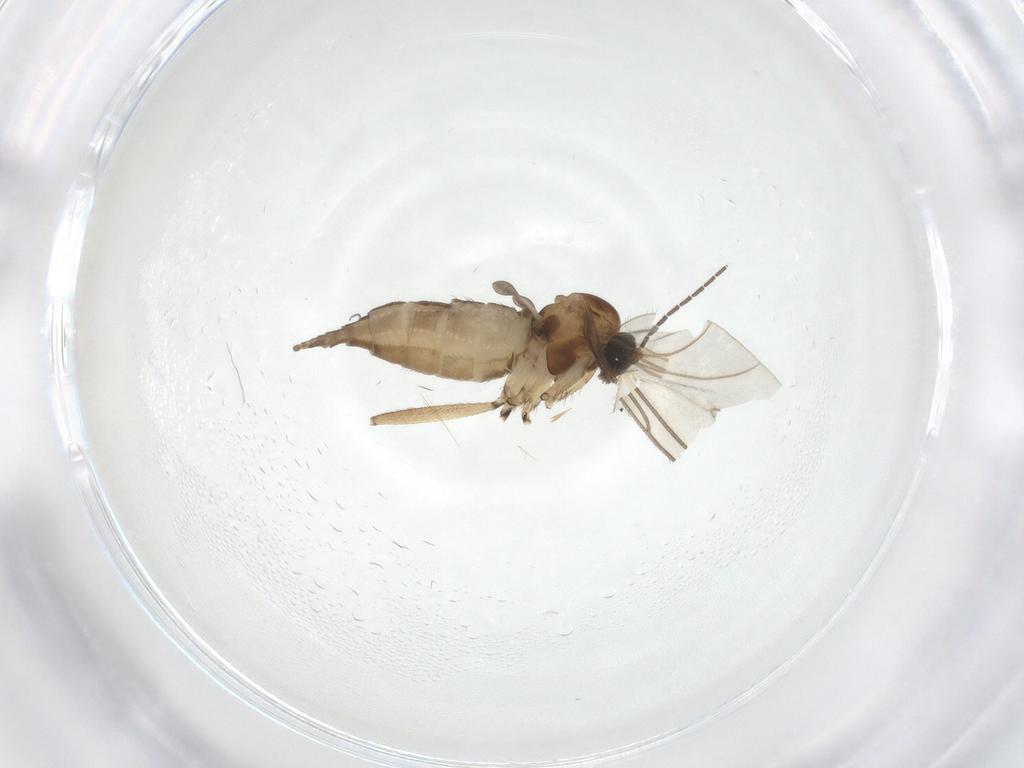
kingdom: Animalia
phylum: Arthropoda
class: Insecta
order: Diptera
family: Sciaridae
